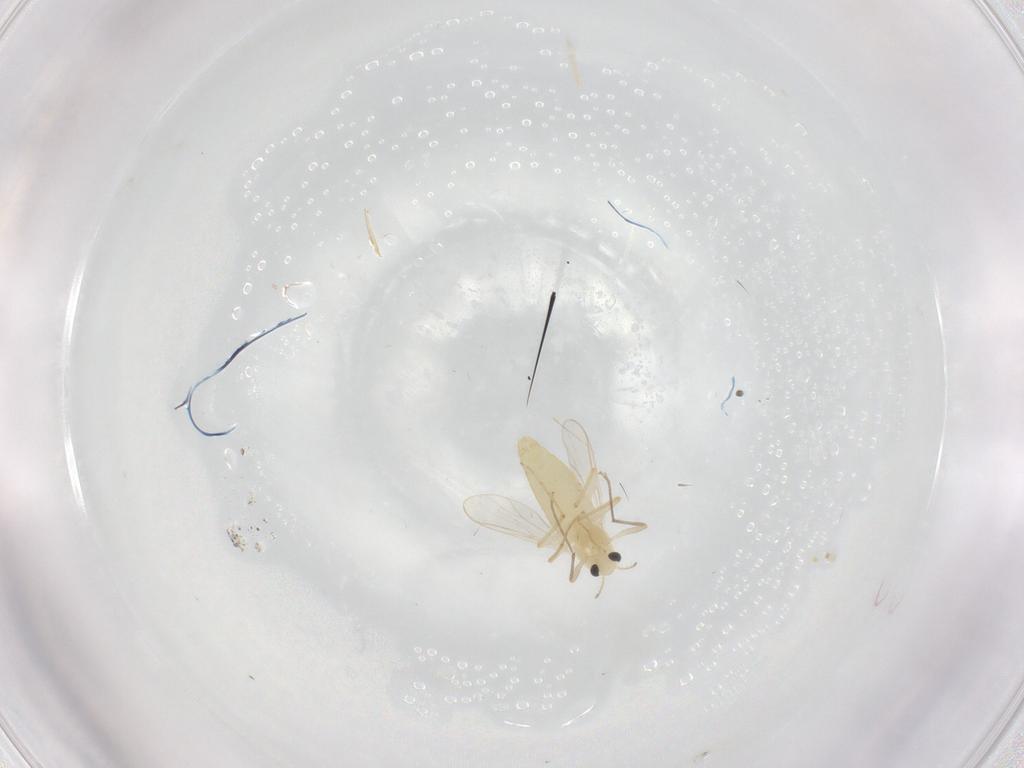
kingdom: Animalia
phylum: Arthropoda
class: Insecta
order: Diptera
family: Chironomidae
